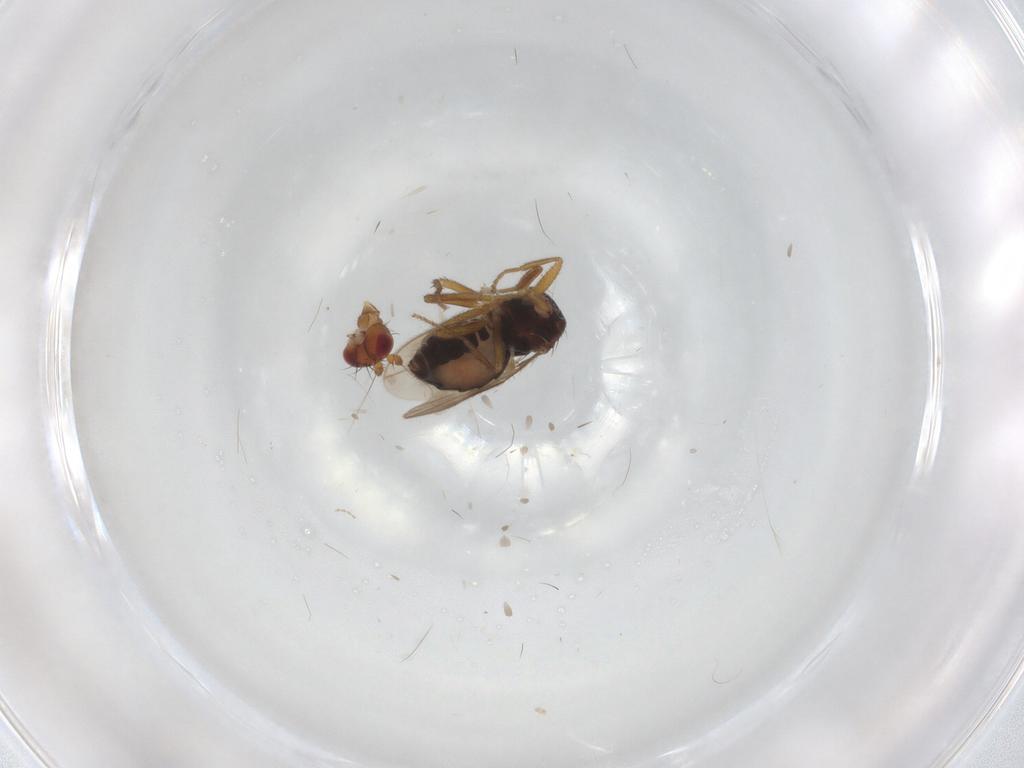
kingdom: Animalia
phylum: Arthropoda
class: Insecta
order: Diptera
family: Sphaeroceridae
